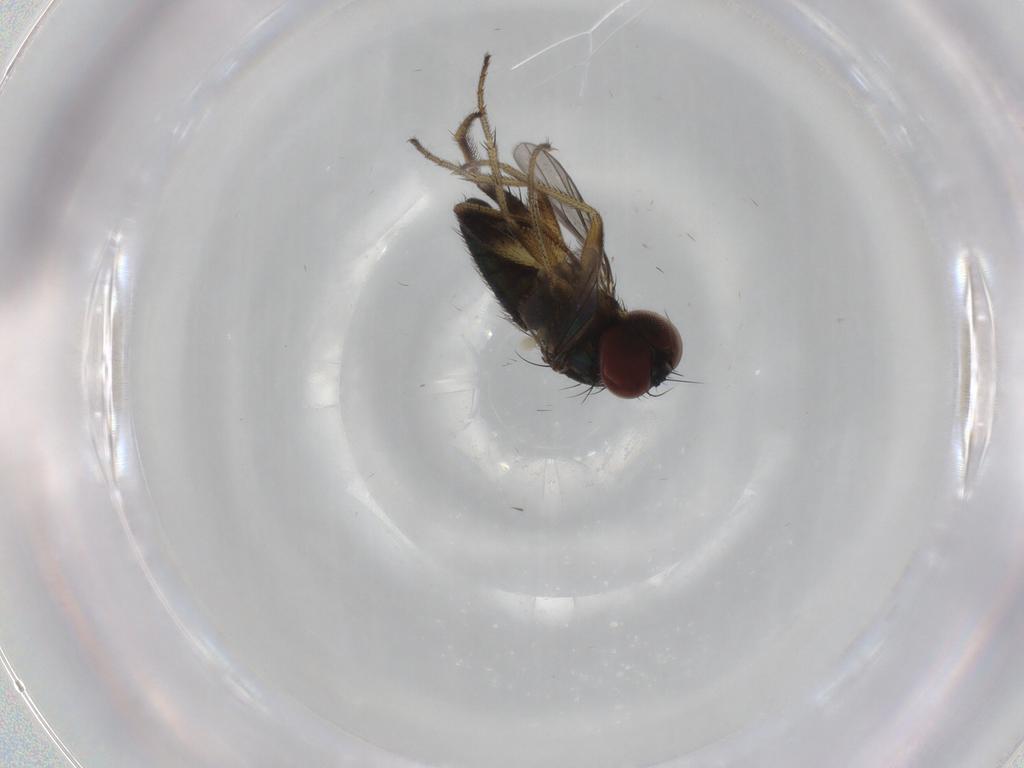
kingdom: Animalia
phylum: Arthropoda
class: Insecta
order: Diptera
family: Dolichopodidae
